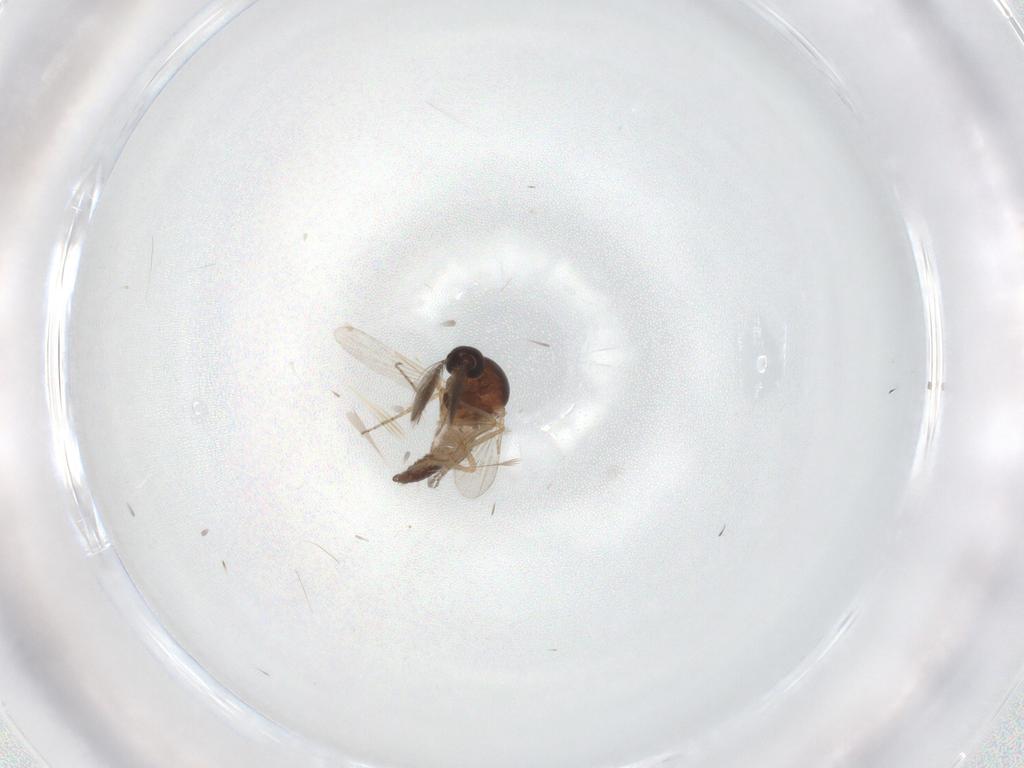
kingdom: Animalia
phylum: Arthropoda
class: Insecta
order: Diptera
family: Ceratopogonidae
